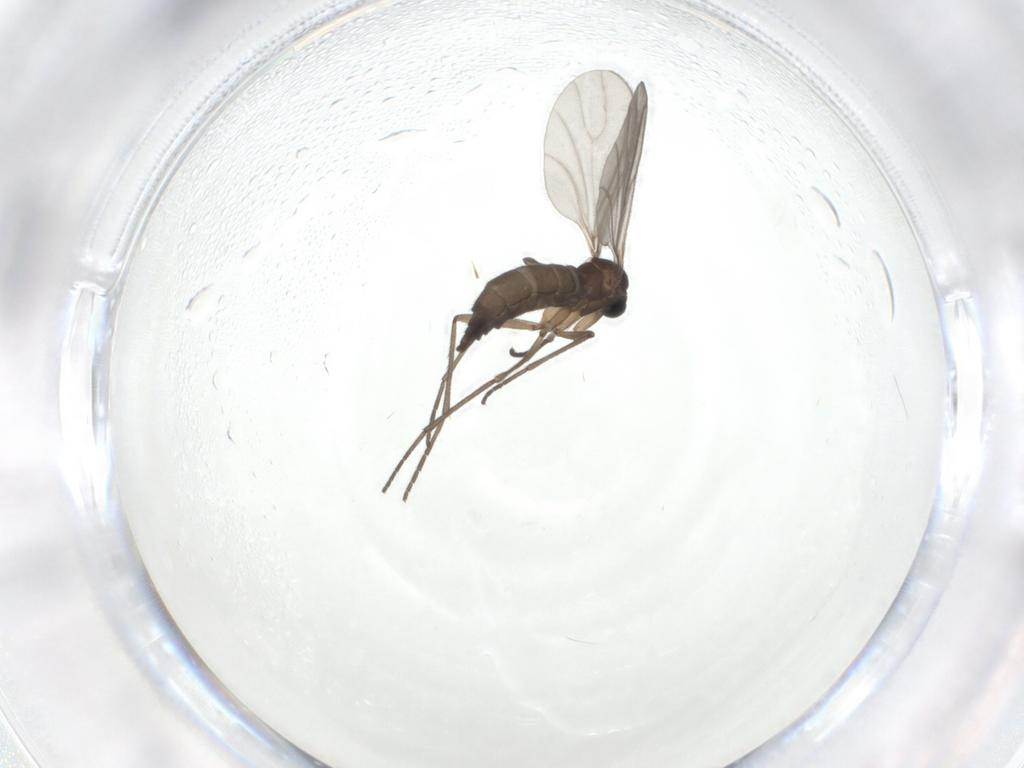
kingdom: Animalia
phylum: Arthropoda
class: Insecta
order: Diptera
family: Sciaridae
